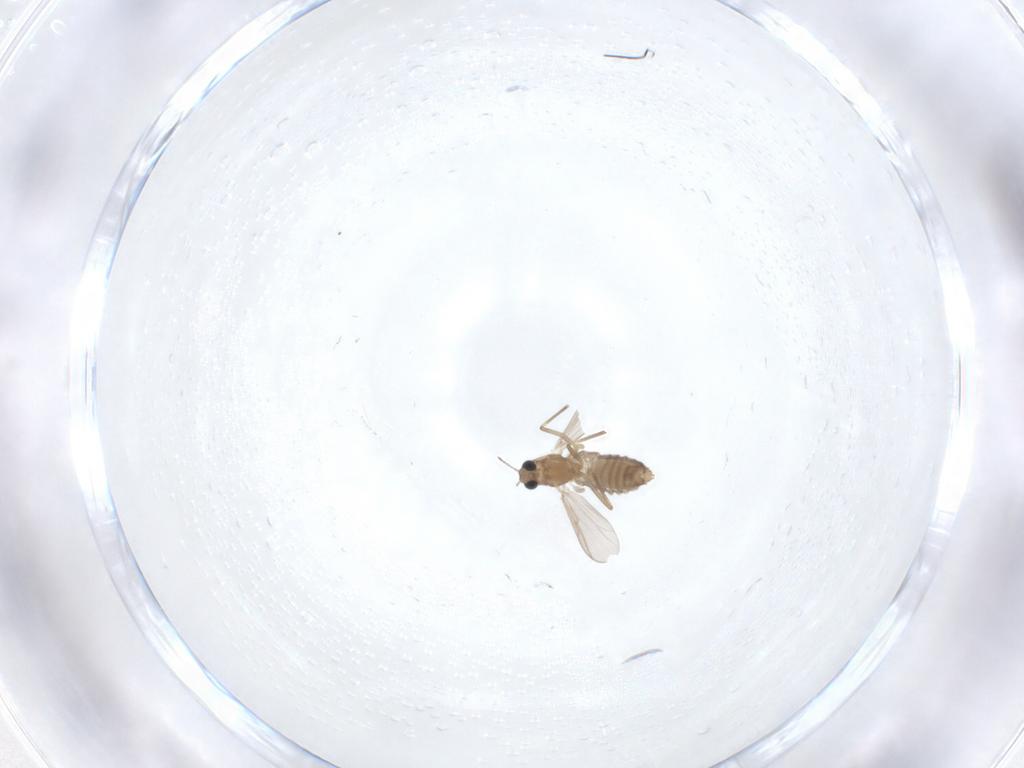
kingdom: Animalia
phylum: Arthropoda
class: Insecta
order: Diptera
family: Chironomidae
